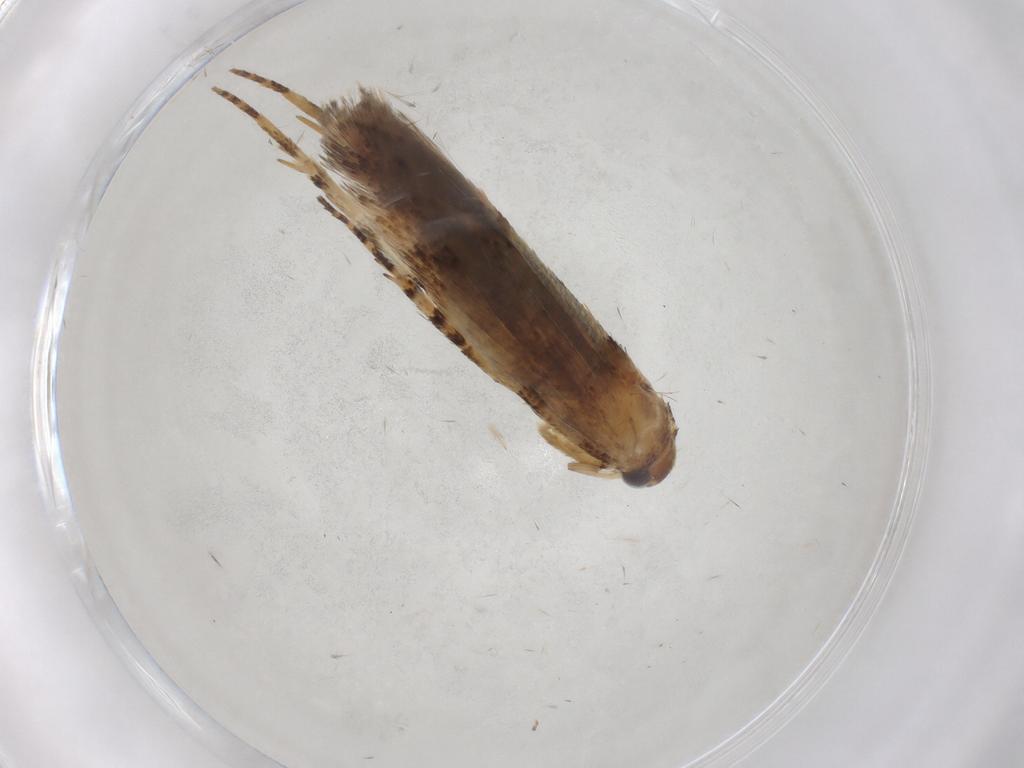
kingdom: Animalia
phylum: Arthropoda
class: Insecta
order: Lepidoptera
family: Gelechiidae
